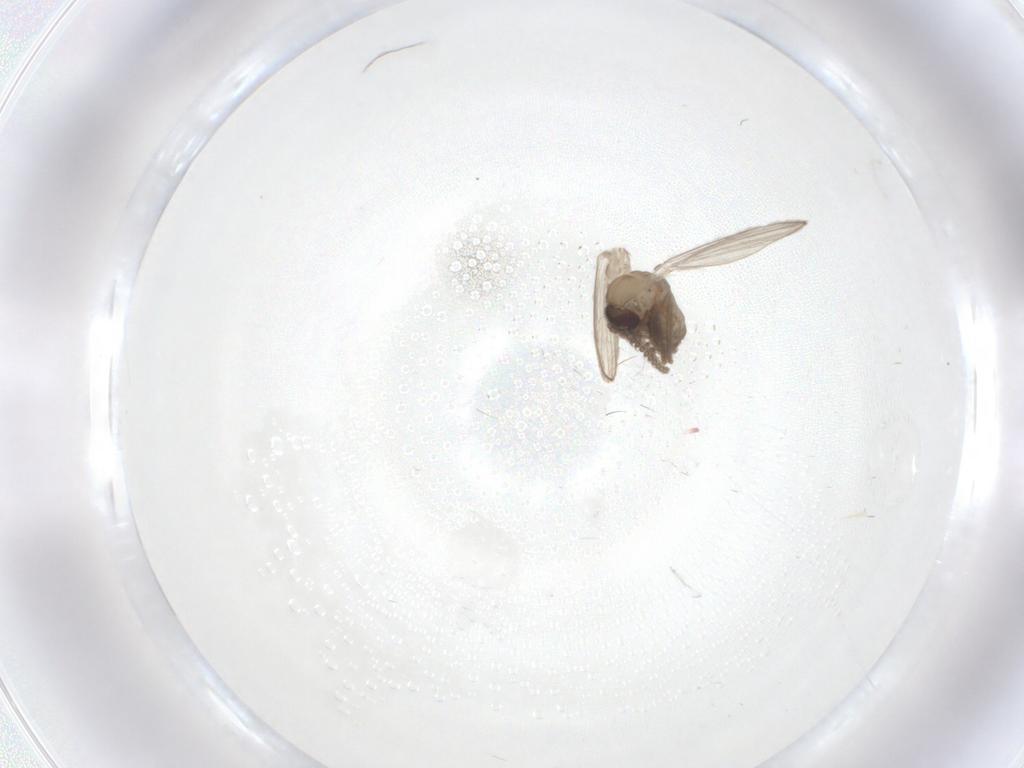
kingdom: Animalia
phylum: Arthropoda
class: Insecta
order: Diptera
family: Psychodidae
